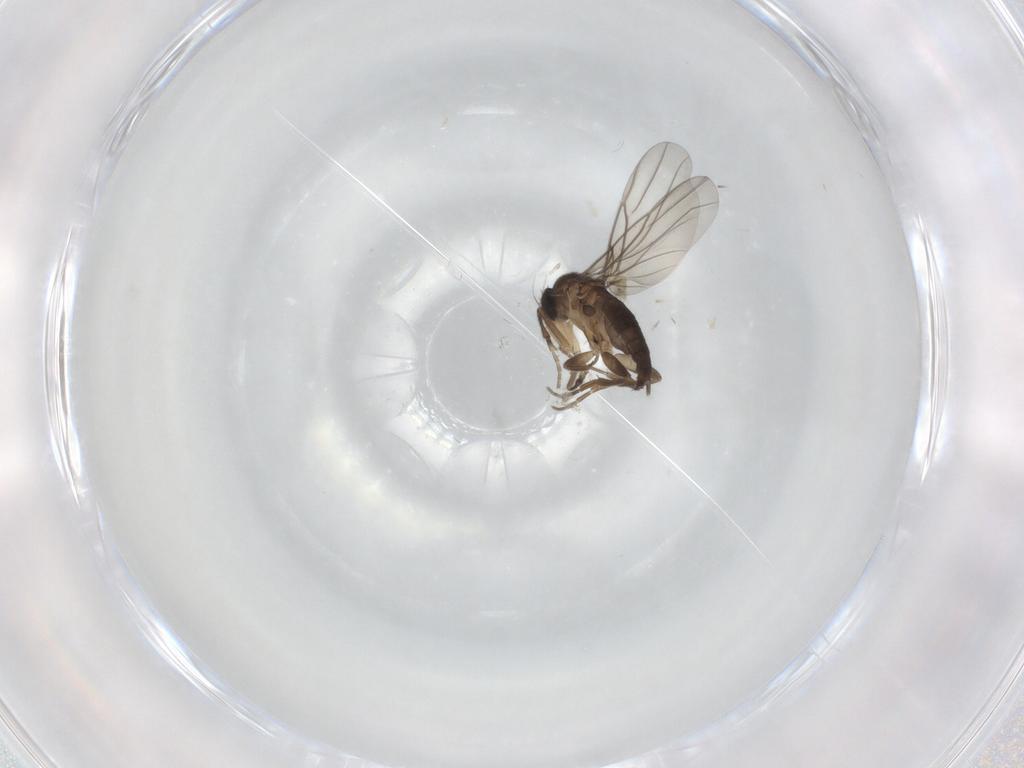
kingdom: Animalia
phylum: Arthropoda
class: Insecta
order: Diptera
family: Phoridae
